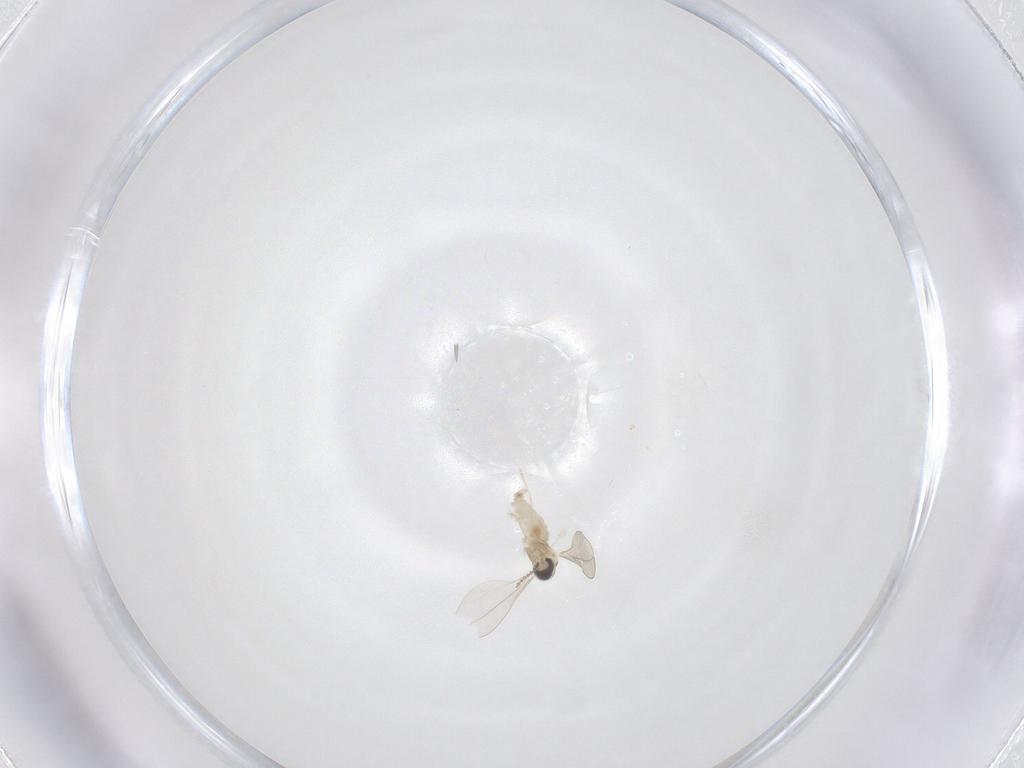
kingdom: Animalia
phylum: Arthropoda
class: Insecta
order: Diptera
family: Cecidomyiidae
